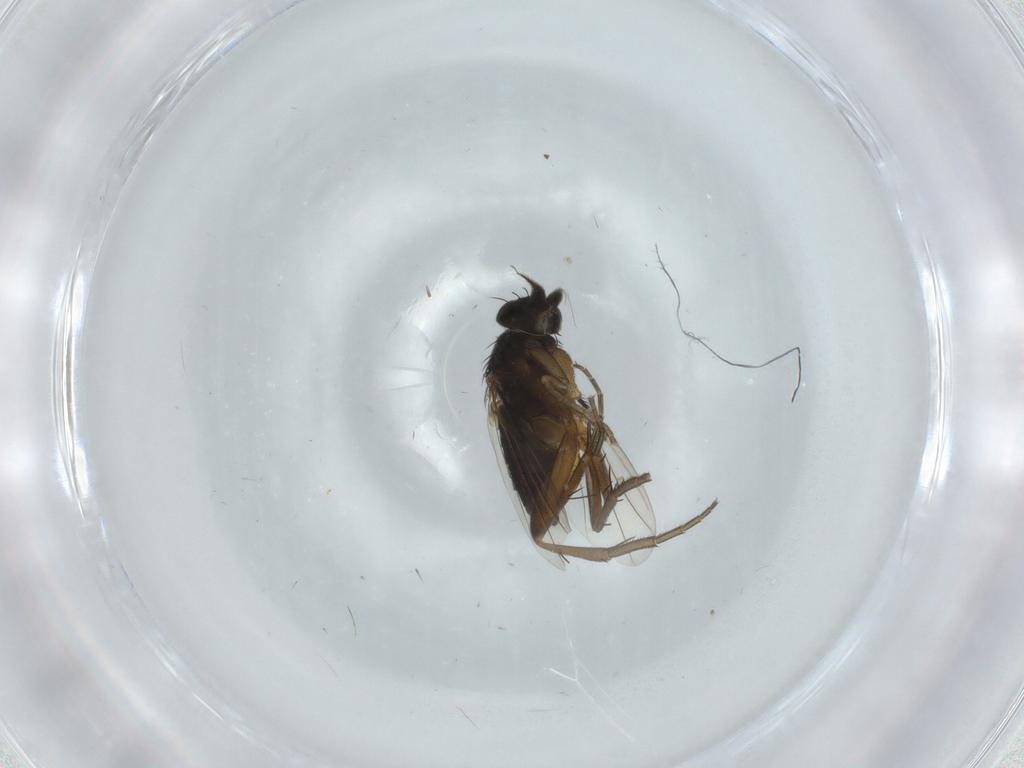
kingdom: Animalia
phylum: Arthropoda
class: Insecta
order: Diptera
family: Phoridae
